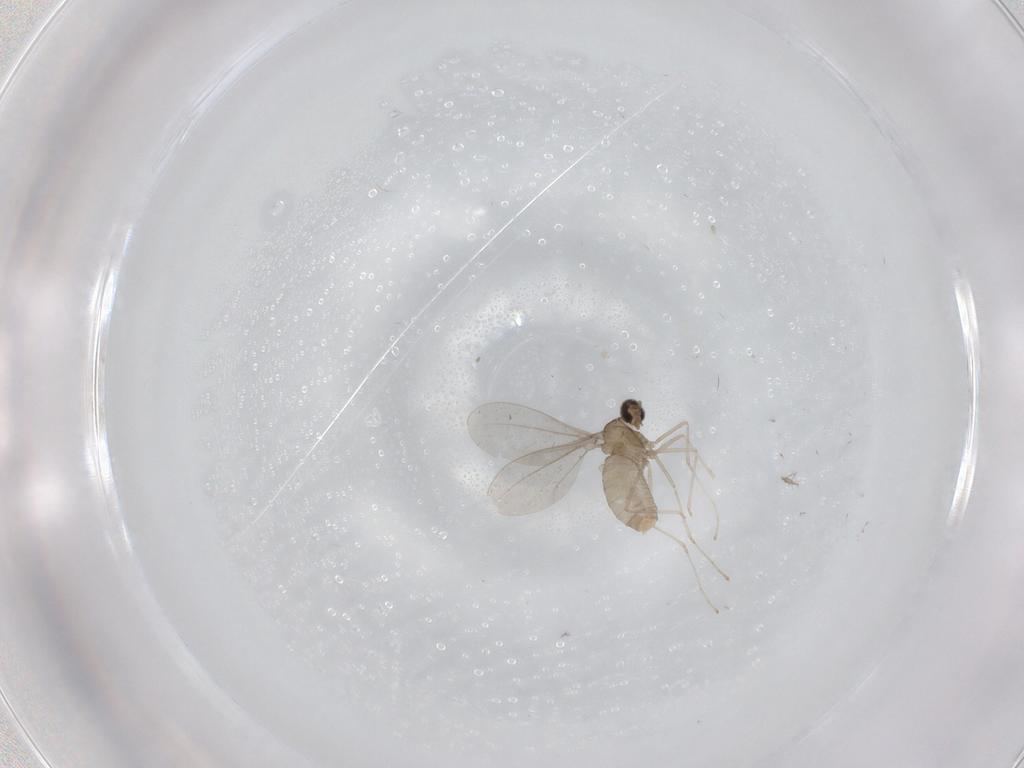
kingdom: Animalia
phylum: Arthropoda
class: Insecta
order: Diptera
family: Cecidomyiidae
